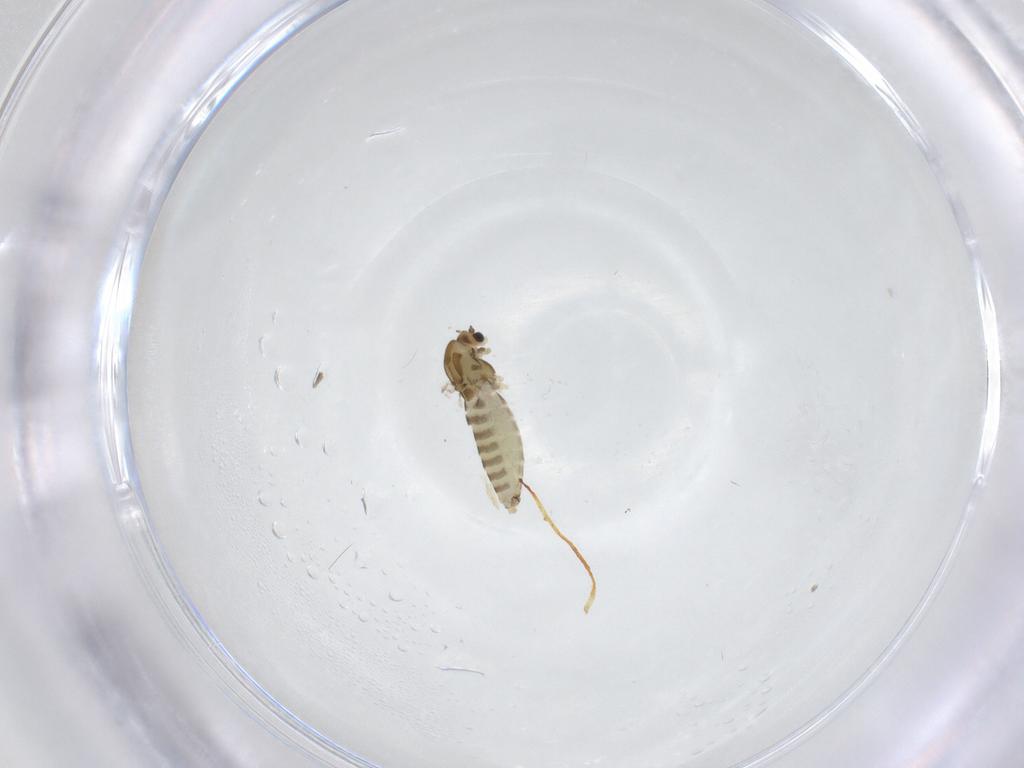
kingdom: Animalia
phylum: Arthropoda
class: Insecta
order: Diptera
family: Chironomidae
